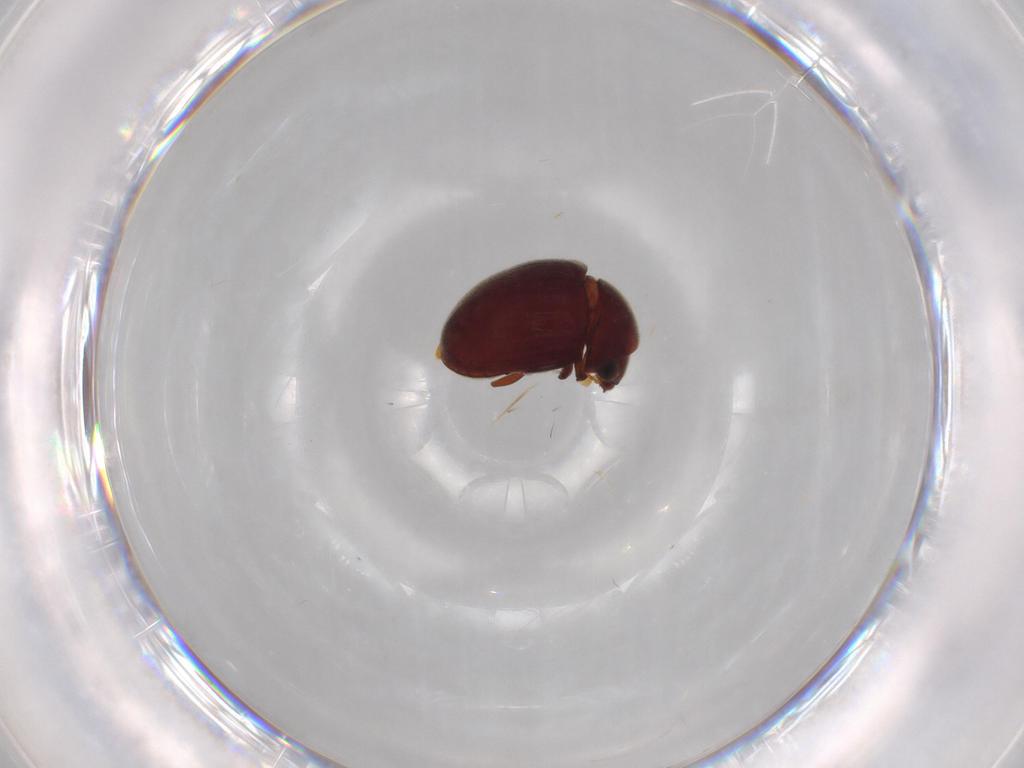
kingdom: Animalia
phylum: Arthropoda
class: Insecta
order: Coleoptera
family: Ptinidae
